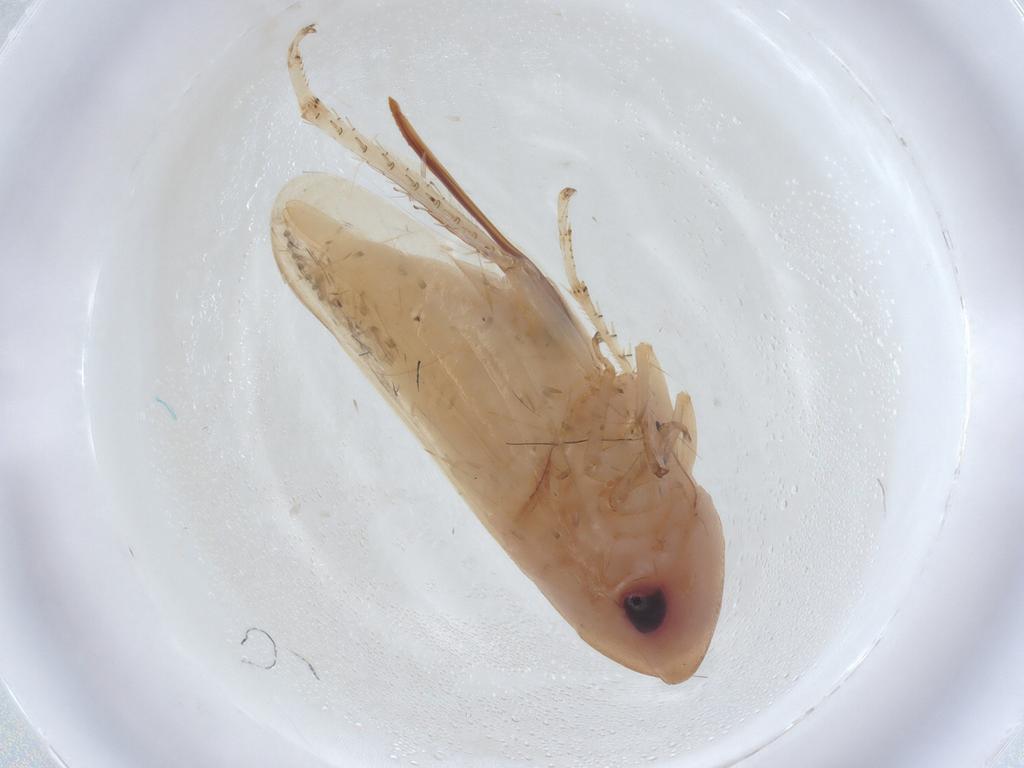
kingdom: Animalia
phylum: Arthropoda
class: Insecta
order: Hemiptera
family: Cicadellidae
